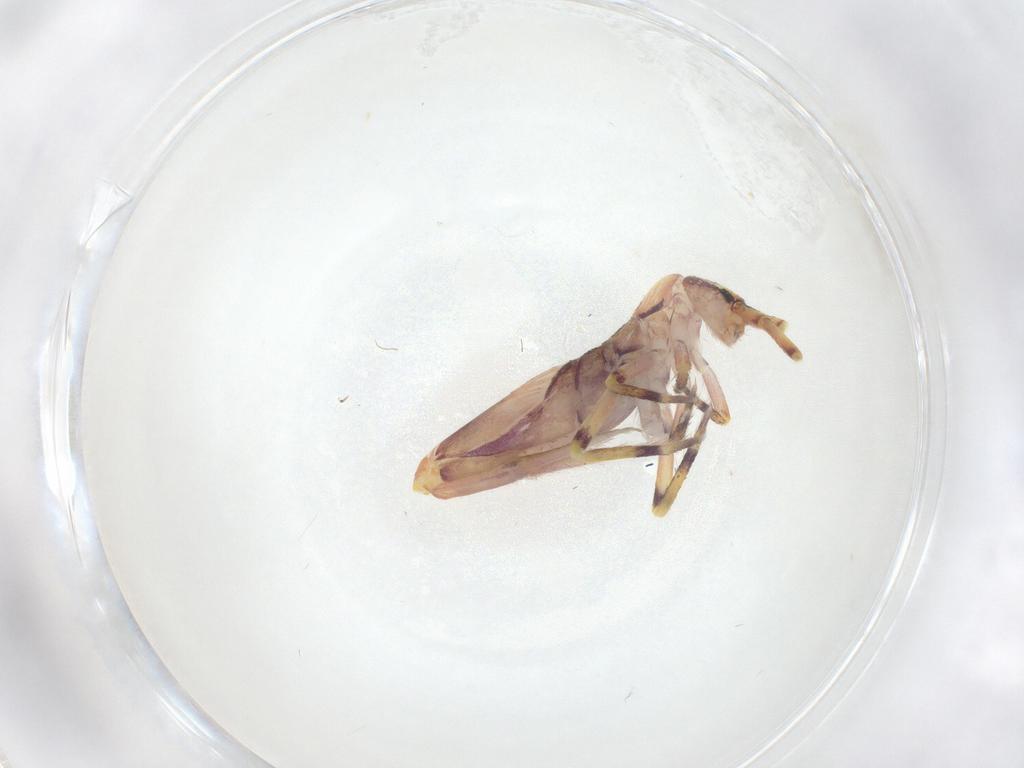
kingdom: Animalia
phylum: Arthropoda
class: Collembola
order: Entomobryomorpha
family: Entomobryidae
